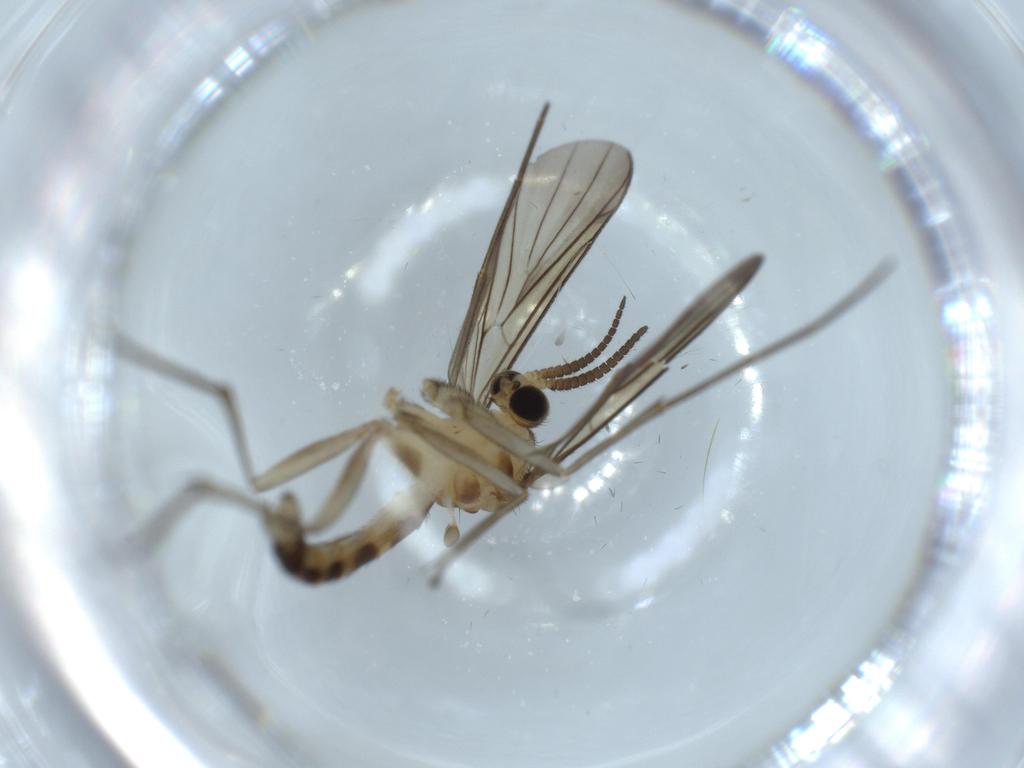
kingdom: Animalia
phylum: Arthropoda
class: Insecta
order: Diptera
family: Mycetophilidae
